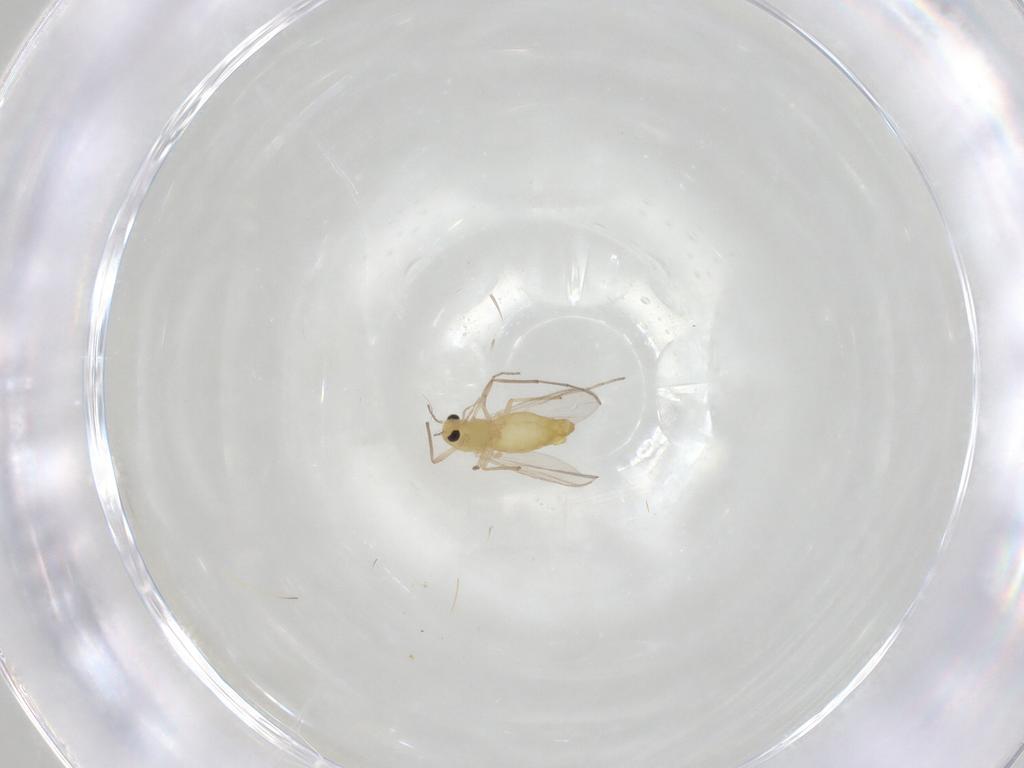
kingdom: Animalia
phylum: Arthropoda
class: Insecta
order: Diptera
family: Chironomidae
